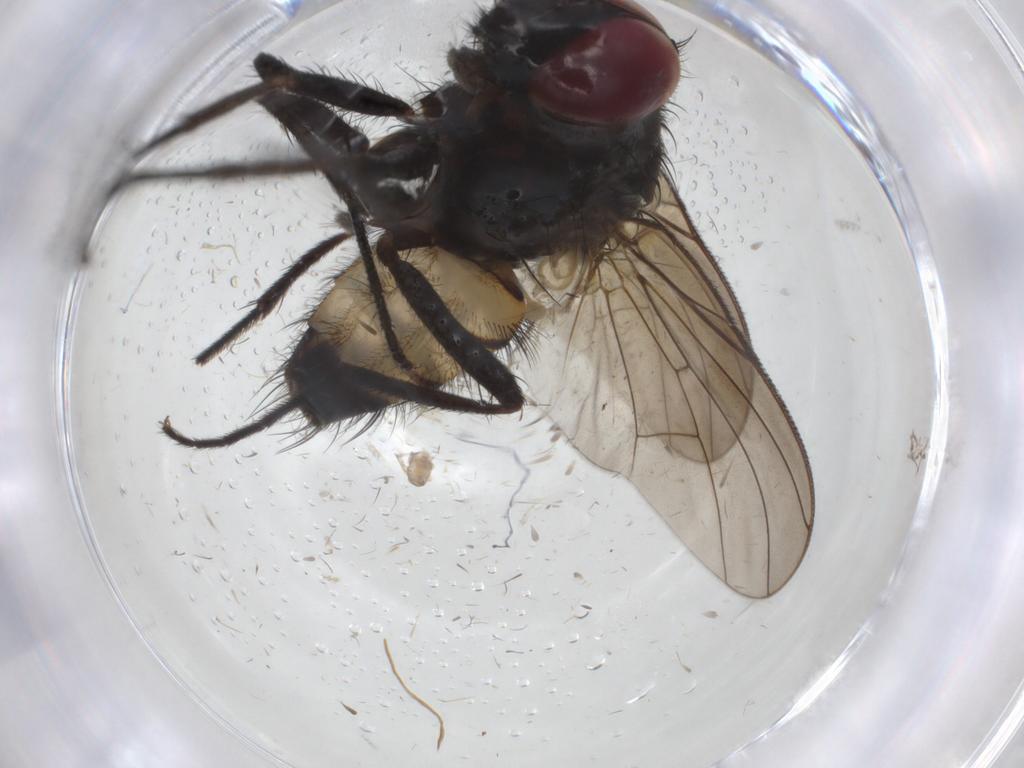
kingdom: Animalia
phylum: Arthropoda
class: Insecta
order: Diptera
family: Muscidae
